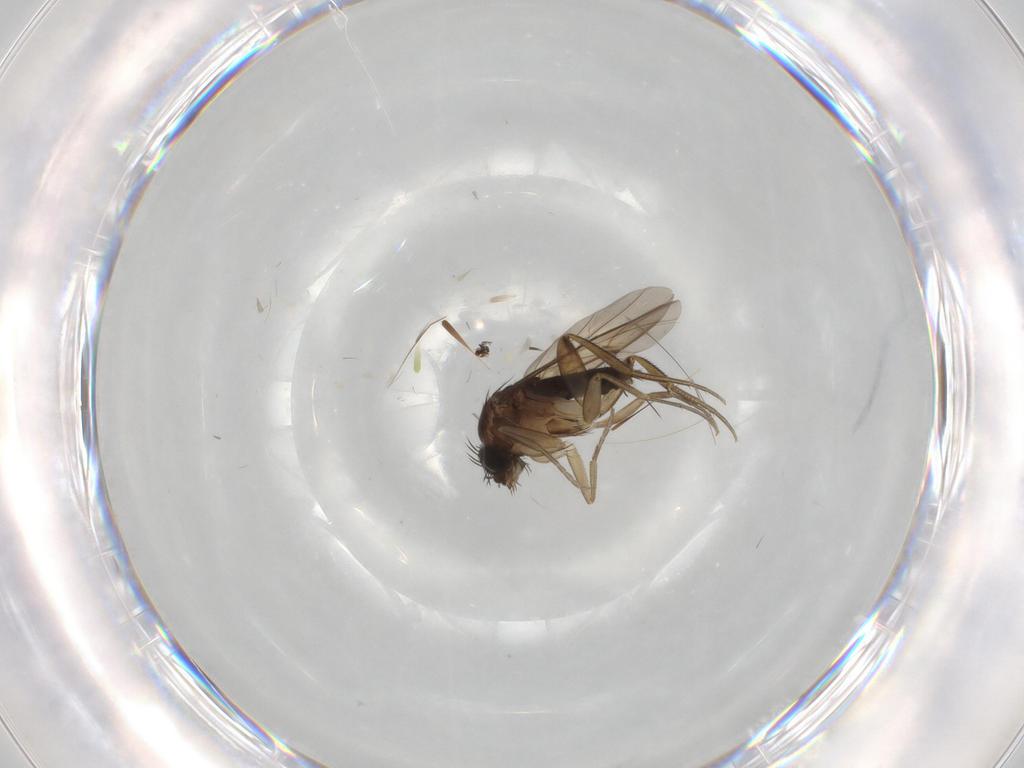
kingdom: Animalia
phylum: Arthropoda
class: Insecta
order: Diptera
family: Phoridae
